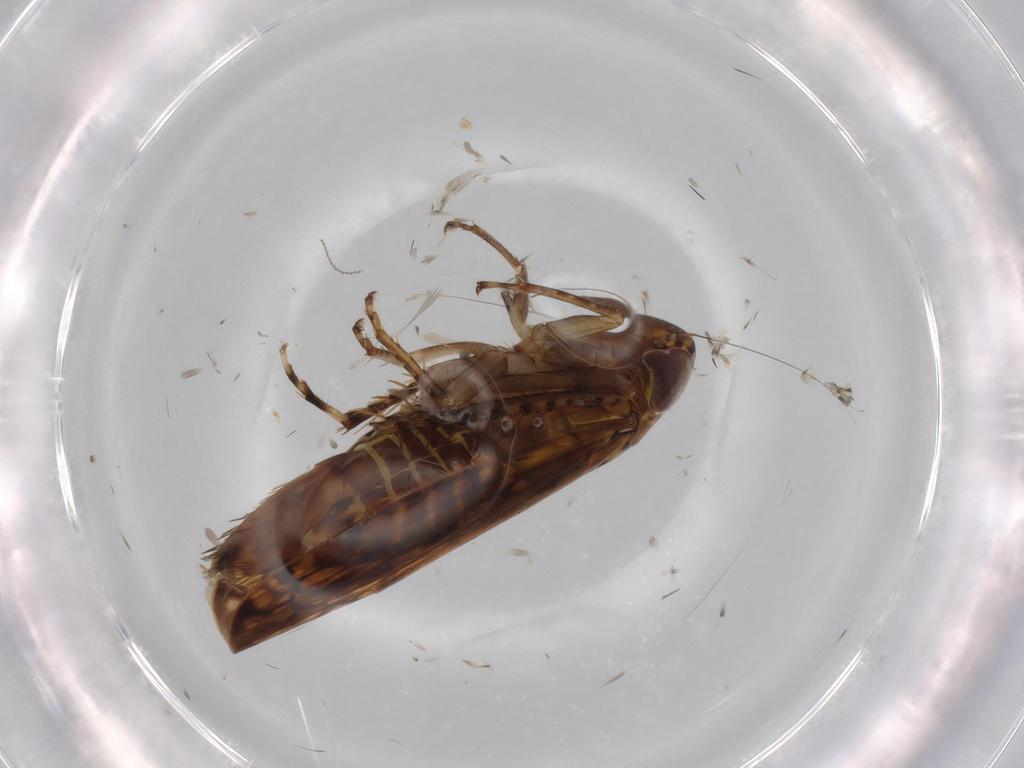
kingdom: Animalia
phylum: Arthropoda
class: Insecta
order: Hemiptera
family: Cicadellidae
